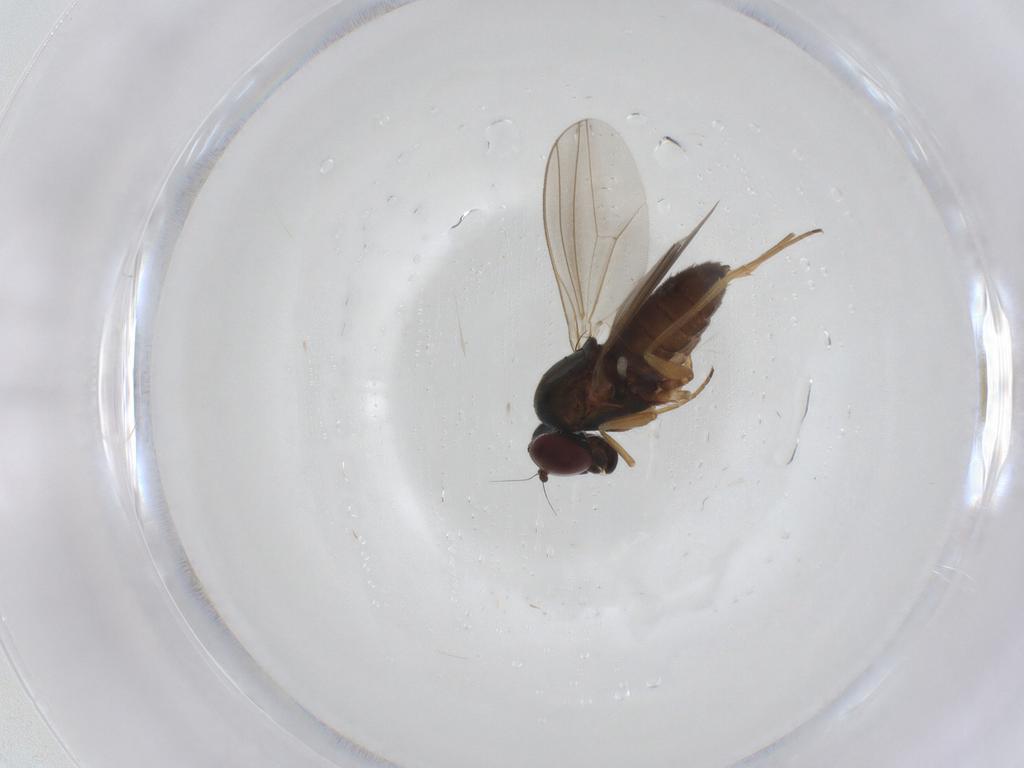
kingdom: Animalia
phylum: Arthropoda
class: Insecta
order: Diptera
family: Dolichopodidae
